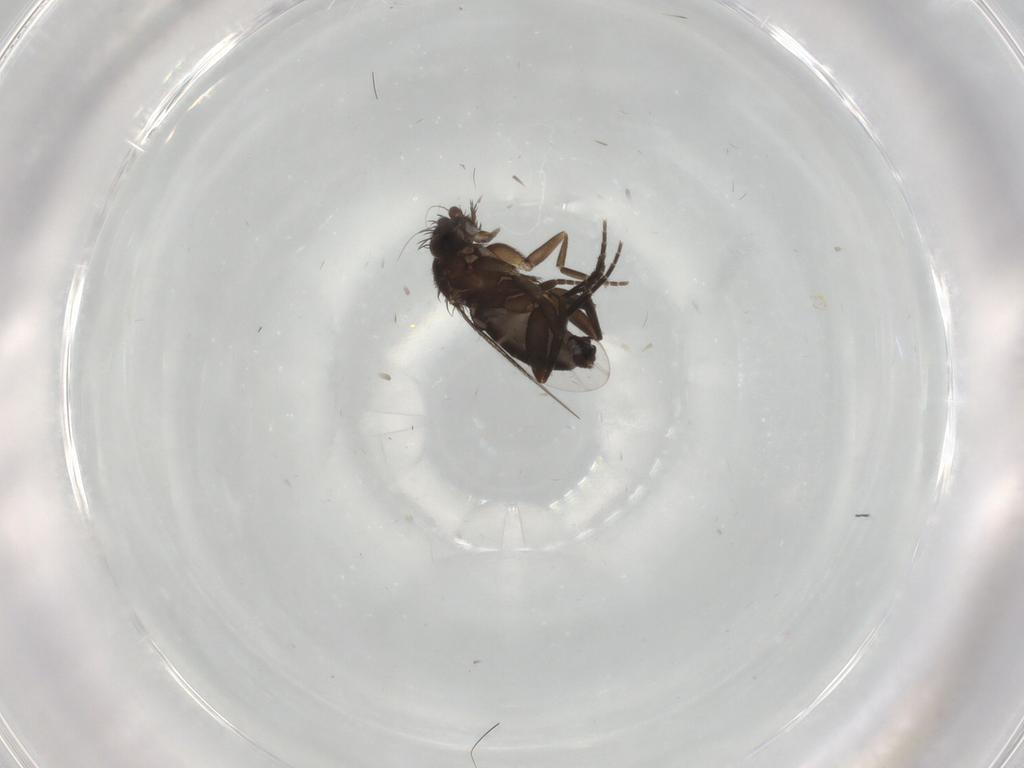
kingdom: Animalia
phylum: Arthropoda
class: Insecta
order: Diptera
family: Phoridae
